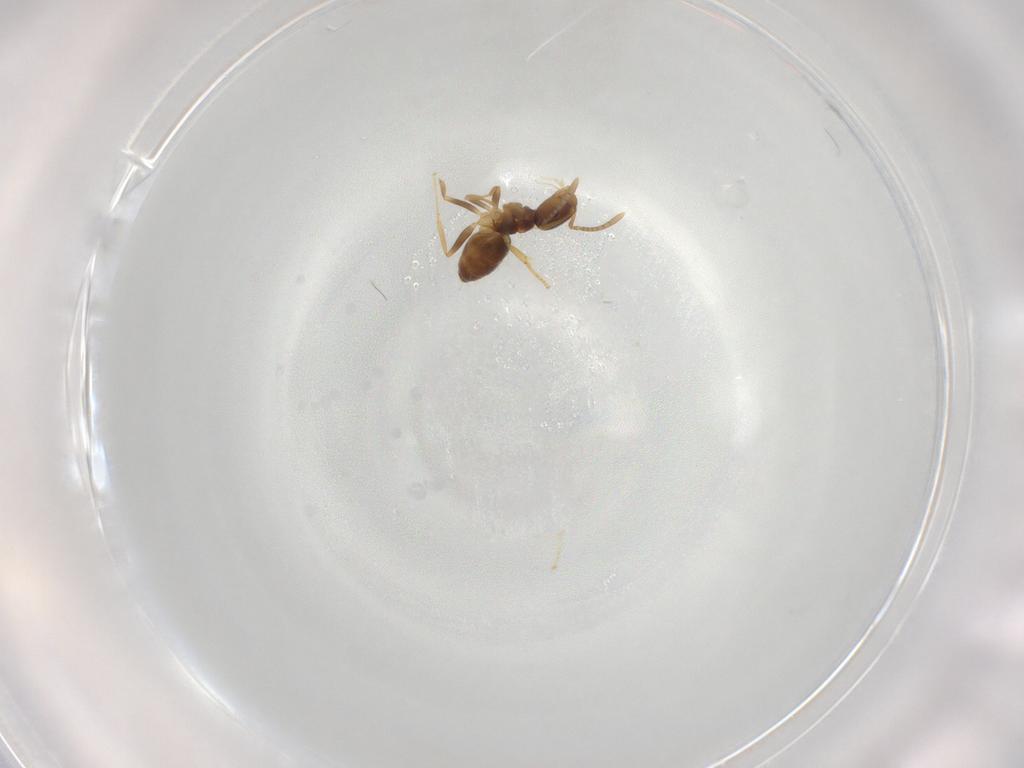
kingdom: Animalia
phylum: Arthropoda
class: Insecta
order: Hymenoptera
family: Formicidae
